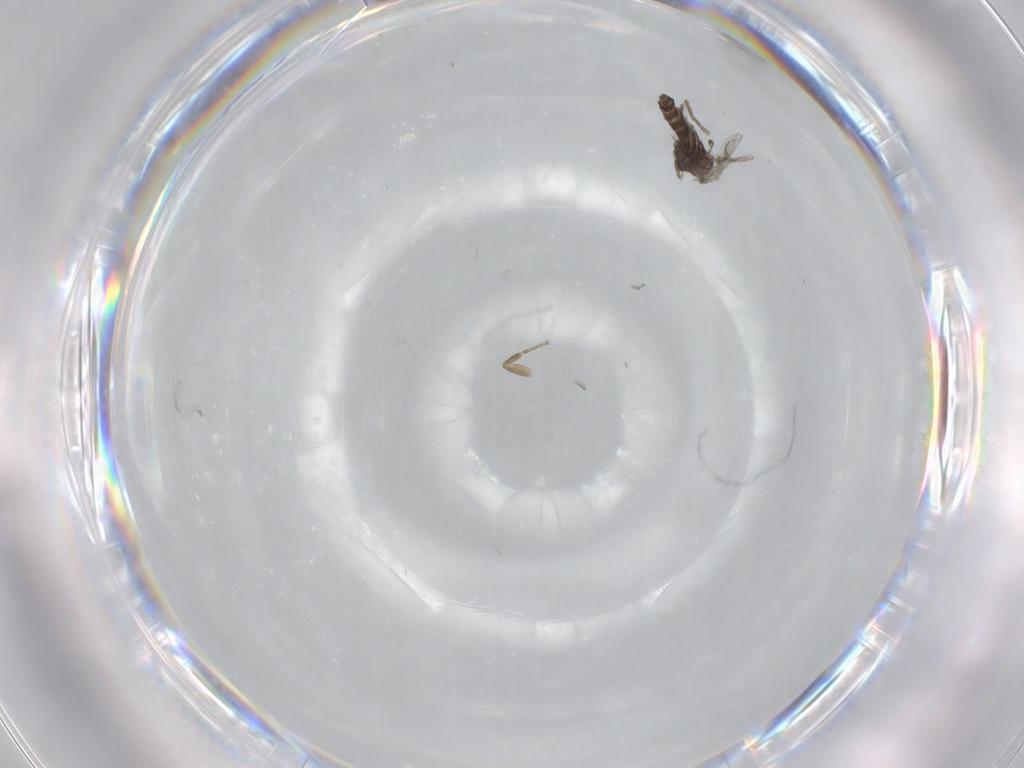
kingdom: Animalia
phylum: Arthropoda
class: Insecta
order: Diptera
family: Chironomidae
